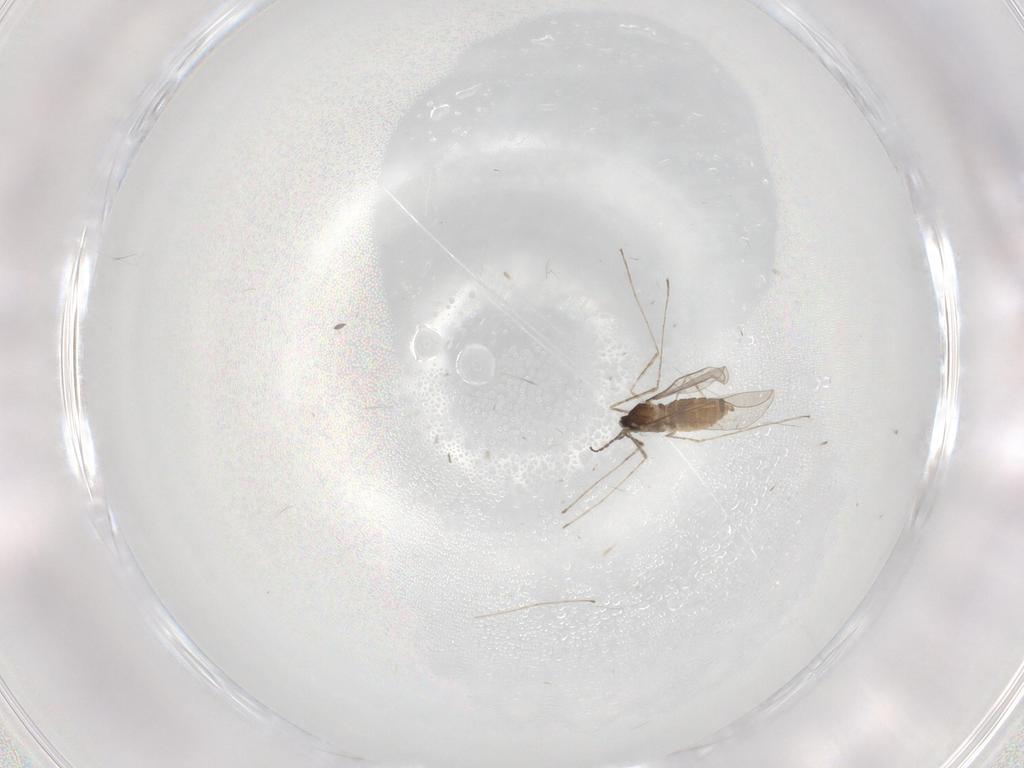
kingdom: Animalia
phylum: Arthropoda
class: Insecta
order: Diptera
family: Cecidomyiidae
